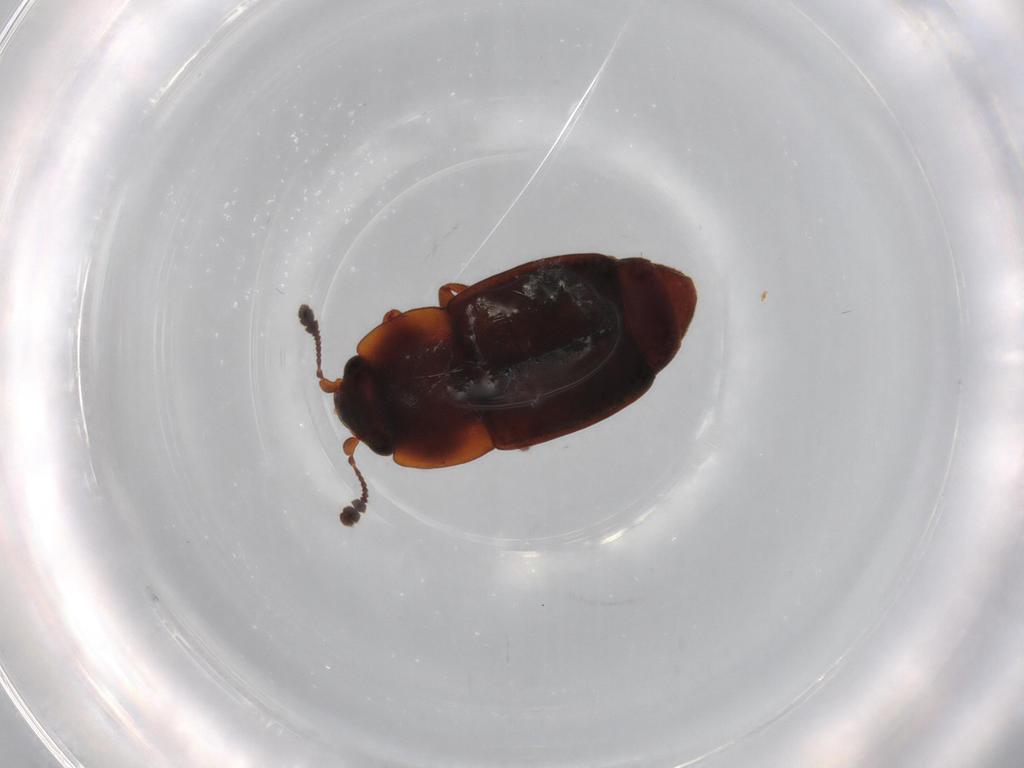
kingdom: Animalia
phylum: Arthropoda
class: Insecta
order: Coleoptera
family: Nitidulidae
